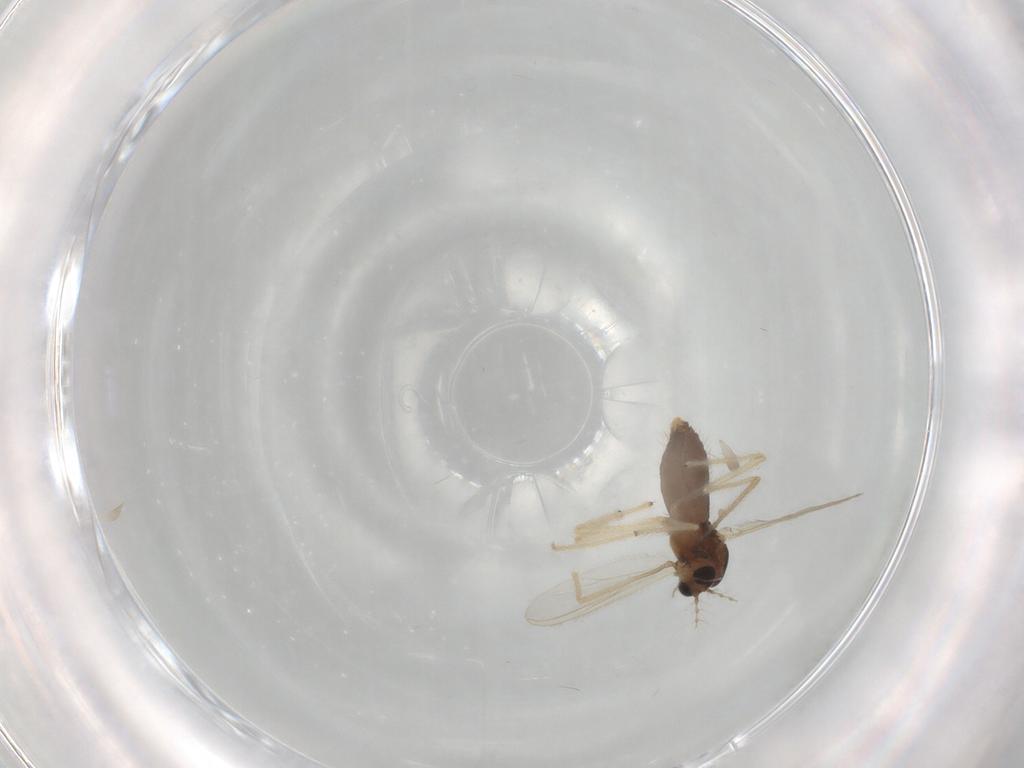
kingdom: Animalia
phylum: Arthropoda
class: Insecta
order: Diptera
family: Chironomidae
